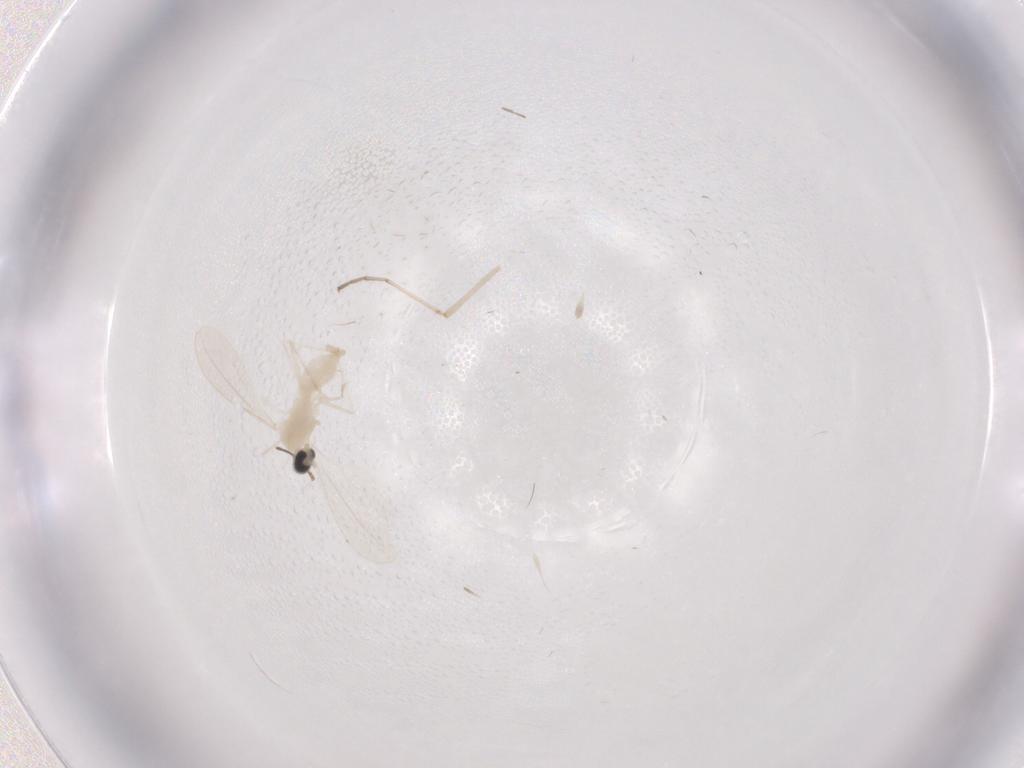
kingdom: Animalia
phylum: Arthropoda
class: Insecta
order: Diptera
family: Cecidomyiidae
